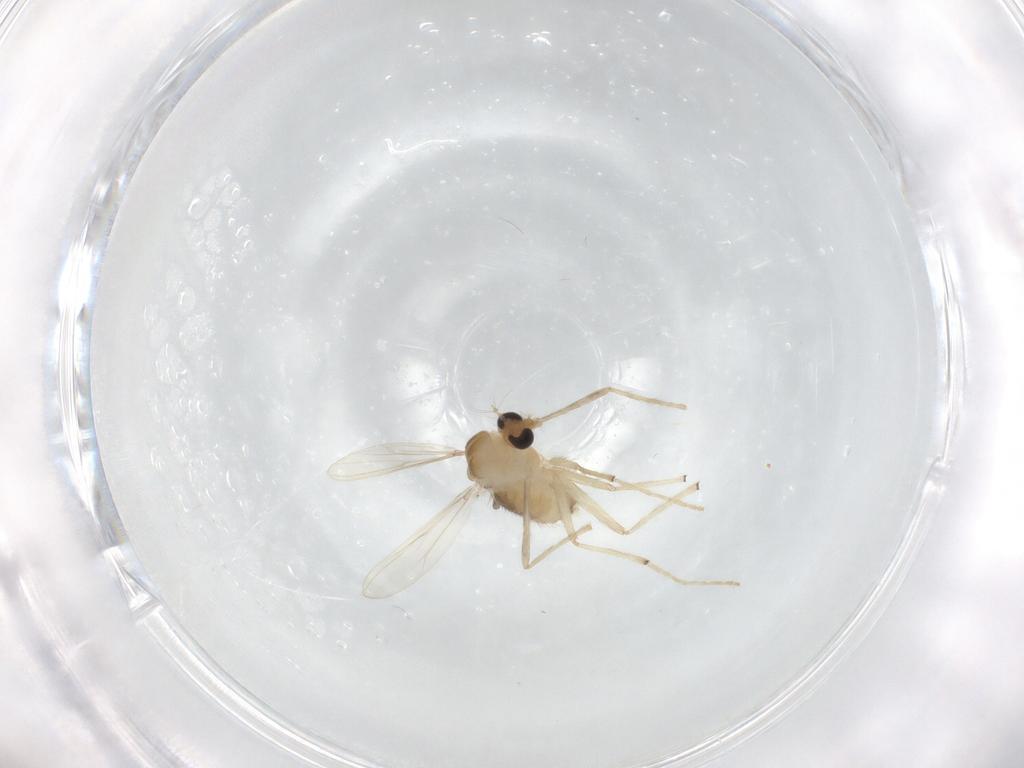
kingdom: Animalia
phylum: Arthropoda
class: Insecta
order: Diptera
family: Chironomidae
